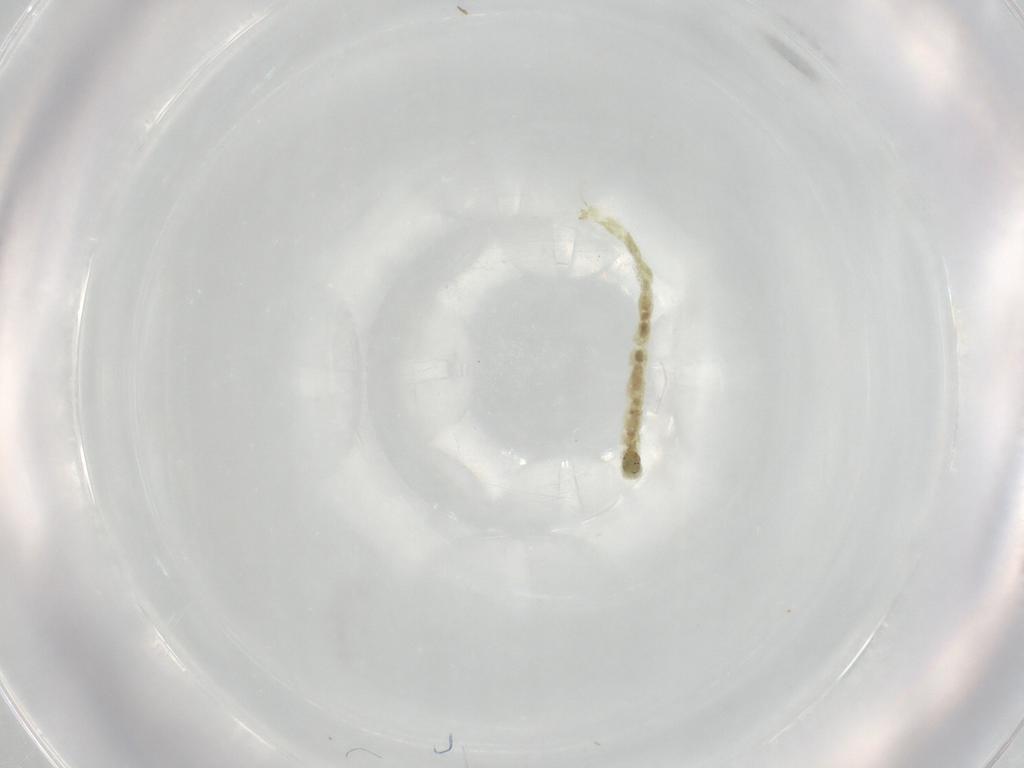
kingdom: Animalia
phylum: Arthropoda
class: Insecta
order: Diptera
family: Chironomidae
